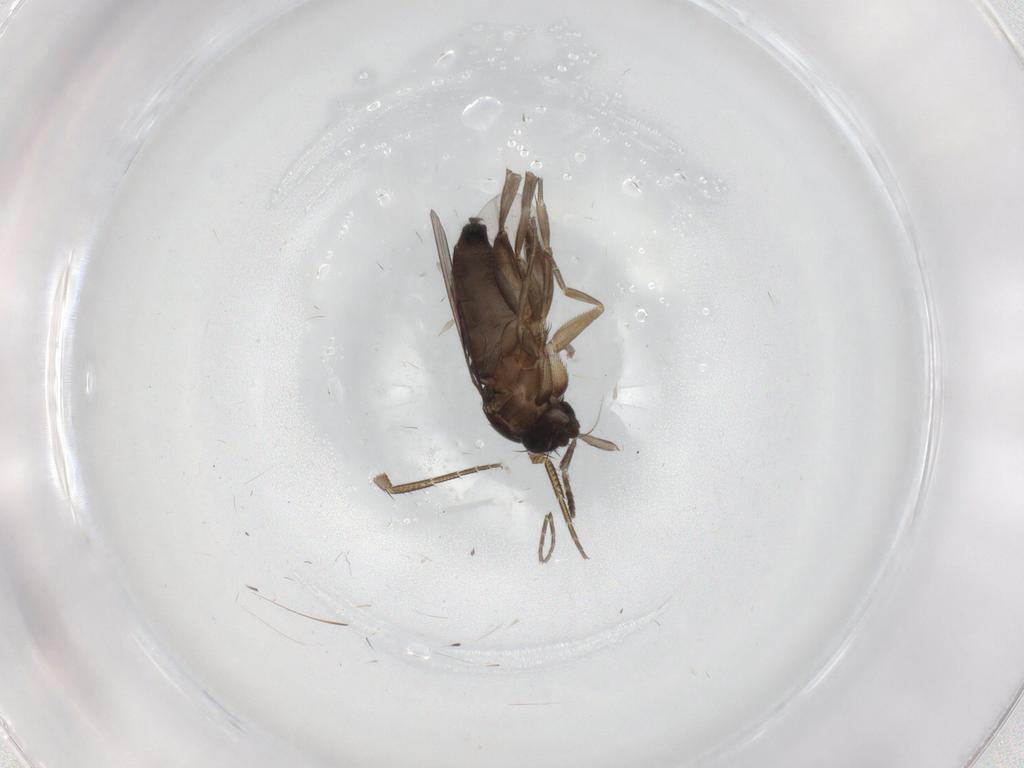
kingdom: Animalia
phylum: Arthropoda
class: Insecta
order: Diptera
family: Phoridae
